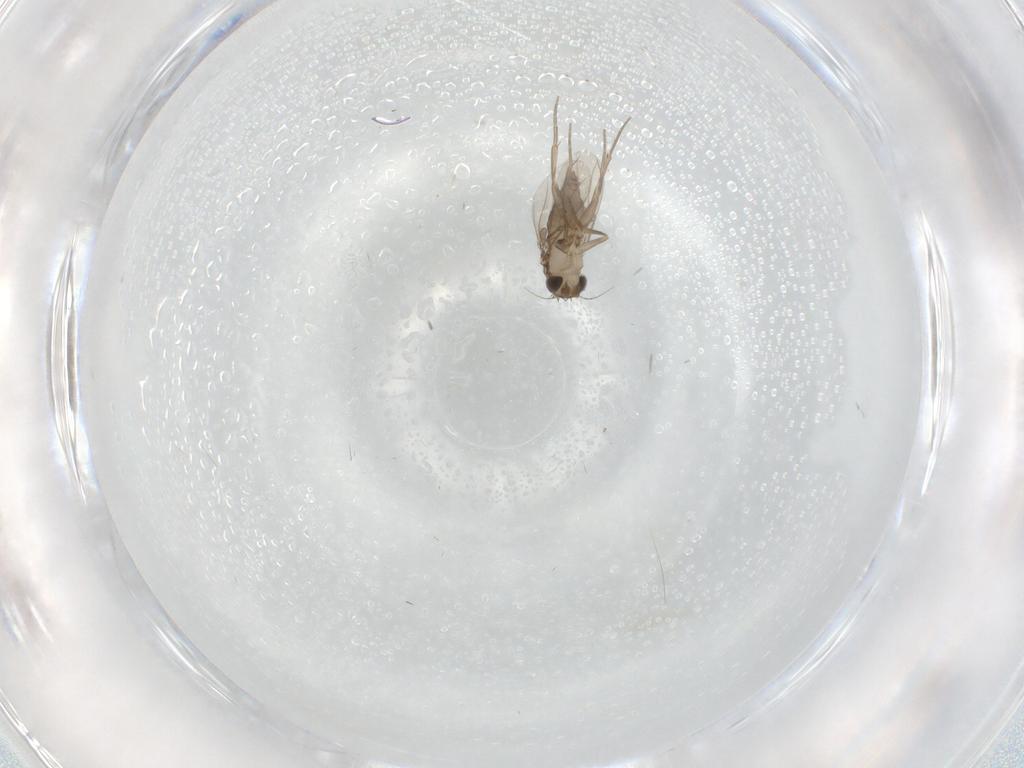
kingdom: Animalia
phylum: Arthropoda
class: Insecta
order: Diptera
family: Phoridae
